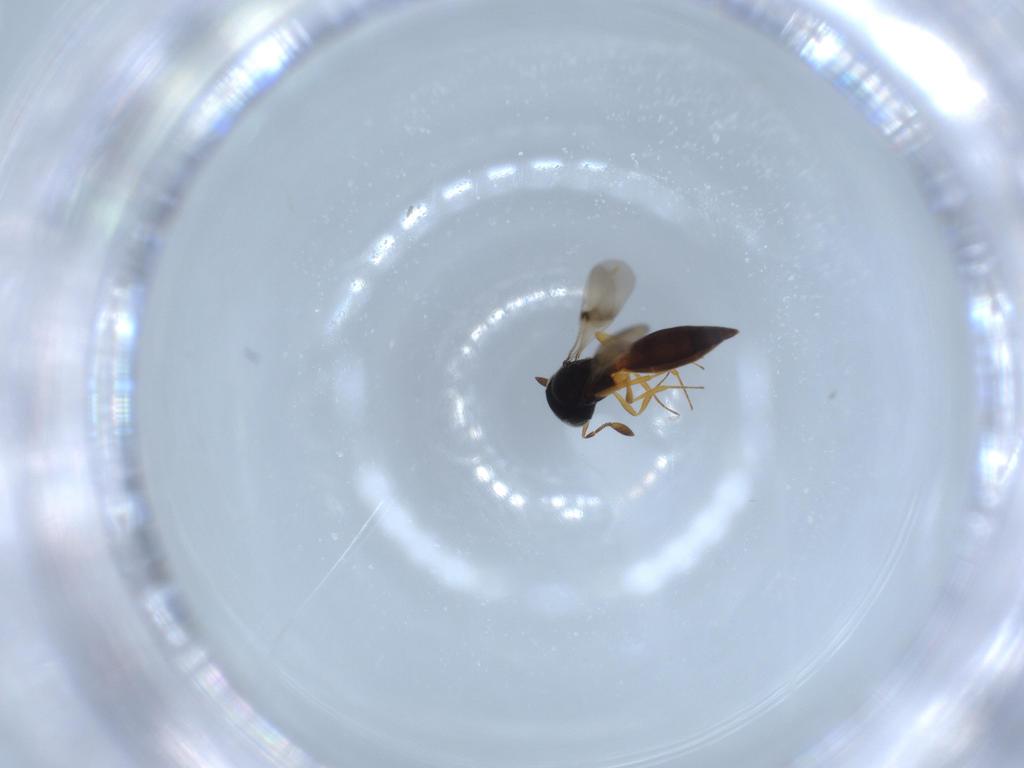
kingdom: Animalia
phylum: Arthropoda
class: Insecta
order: Hymenoptera
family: Scelionidae
